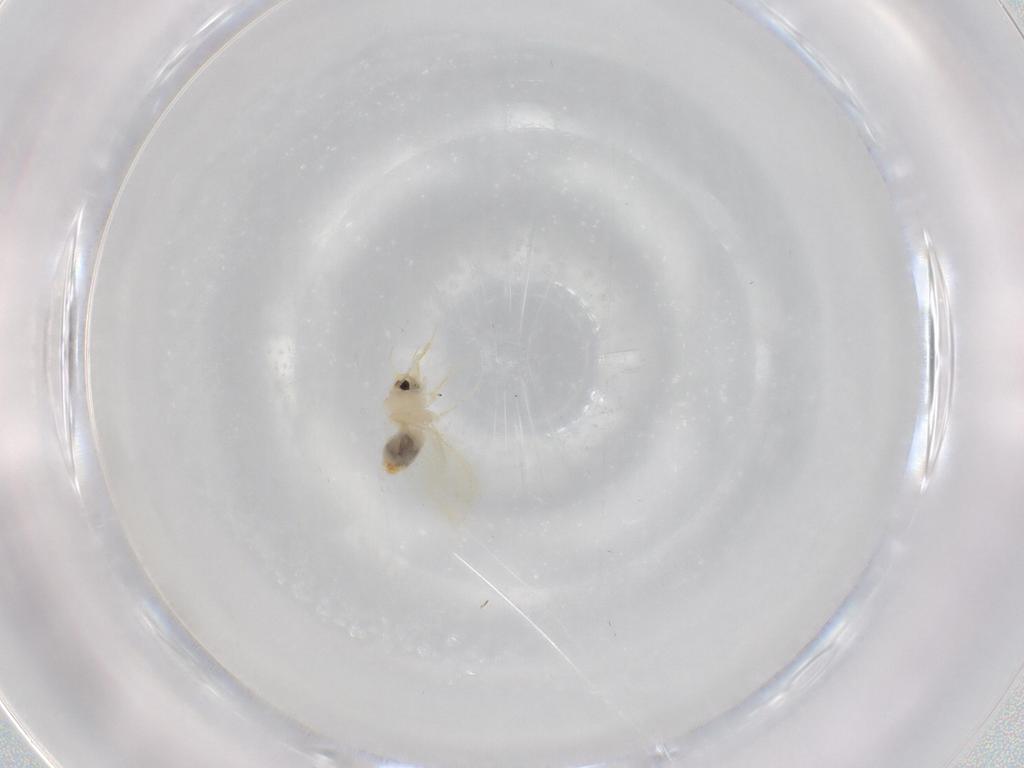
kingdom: Animalia
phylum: Arthropoda
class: Insecta
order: Hemiptera
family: Aleyrodidae
